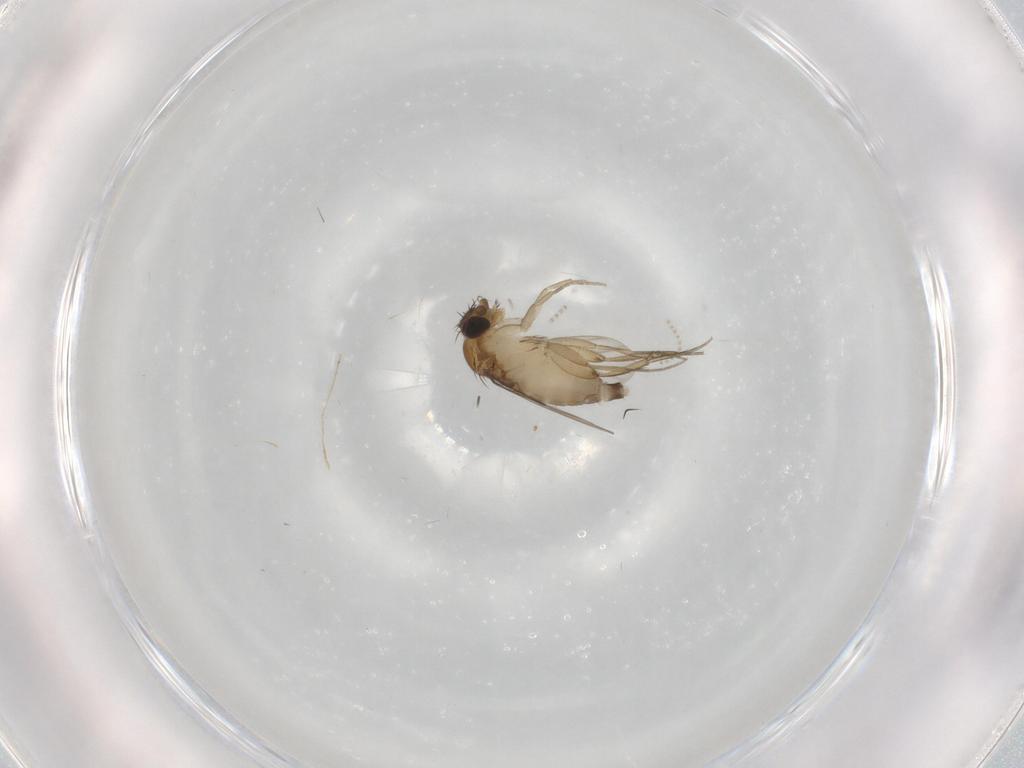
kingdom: Animalia
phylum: Arthropoda
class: Insecta
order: Diptera
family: Phoridae
